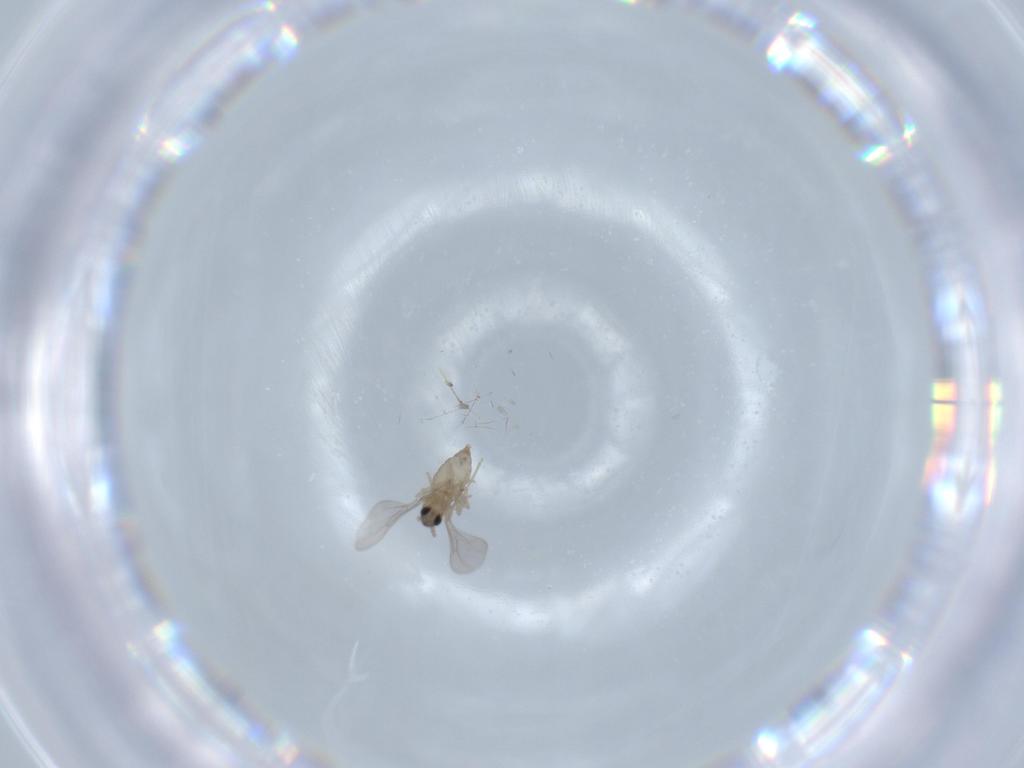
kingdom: Animalia
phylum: Arthropoda
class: Insecta
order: Diptera
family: Cecidomyiidae
